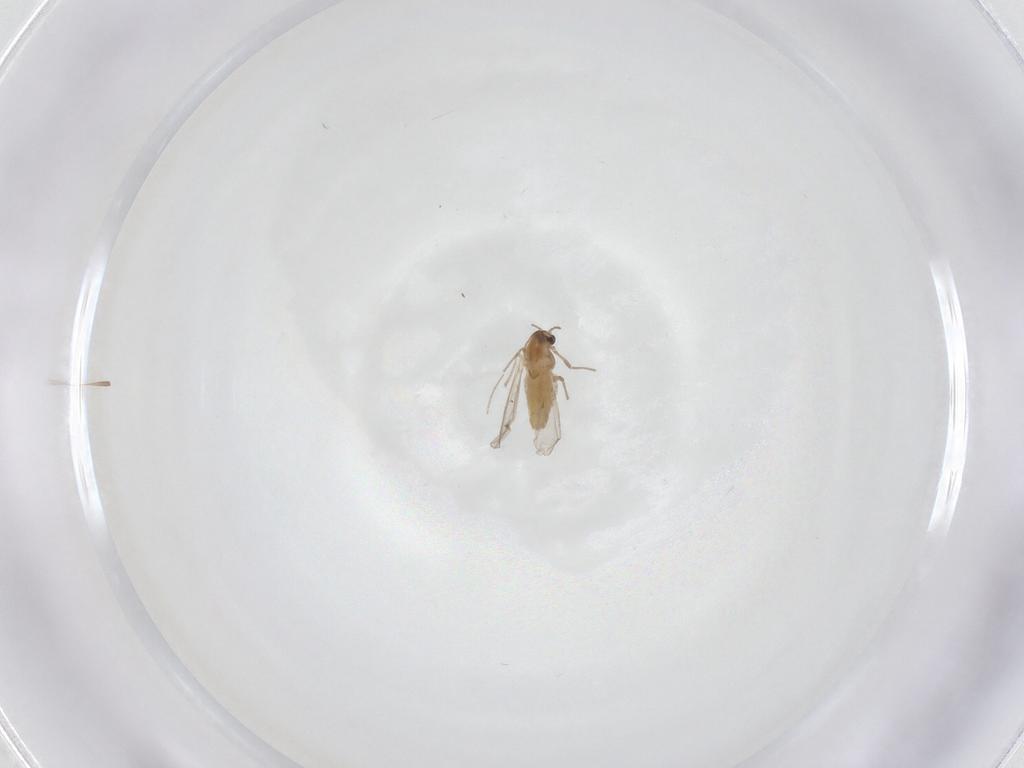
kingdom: Animalia
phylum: Arthropoda
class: Insecta
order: Diptera
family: Chironomidae
